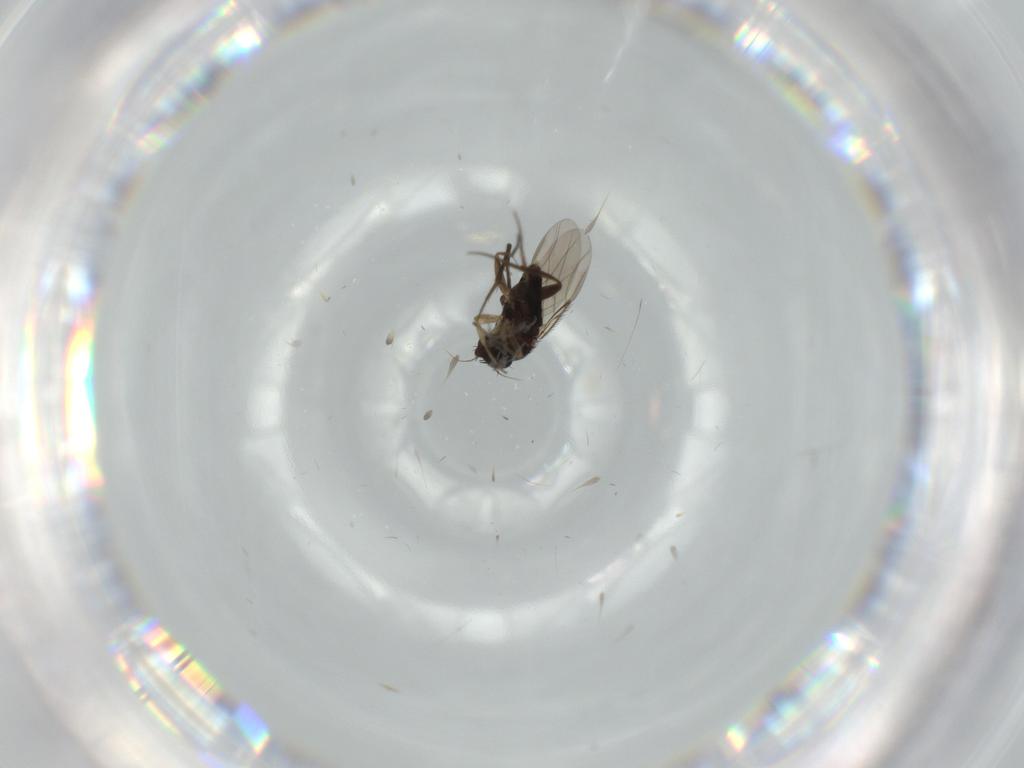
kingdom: Animalia
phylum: Arthropoda
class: Insecta
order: Diptera
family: Phoridae
